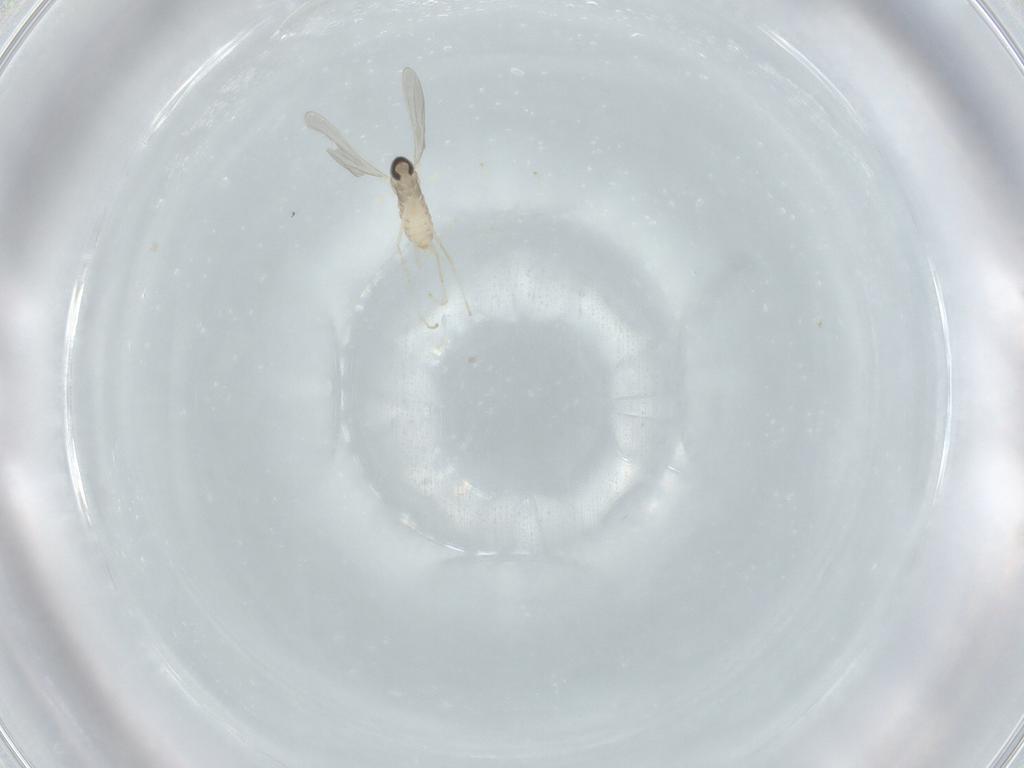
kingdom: Animalia
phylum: Arthropoda
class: Insecta
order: Diptera
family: Cecidomyiidae
